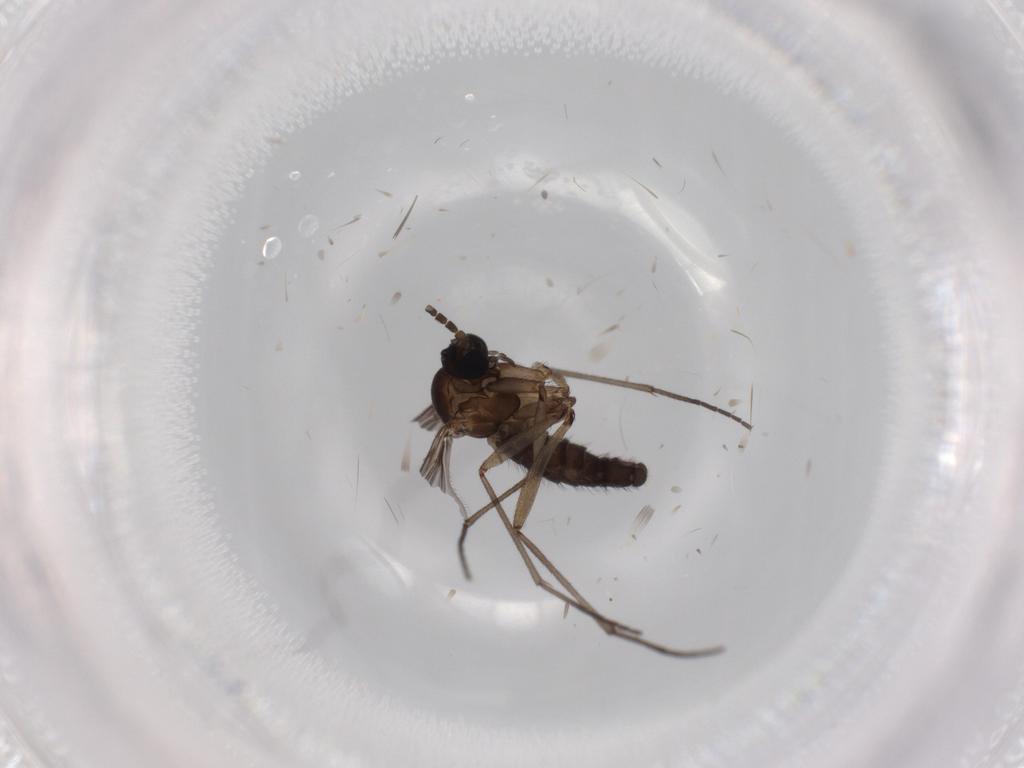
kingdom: Animalia
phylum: Arthropoda
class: Insecta
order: Diptera
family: Sciaridae
